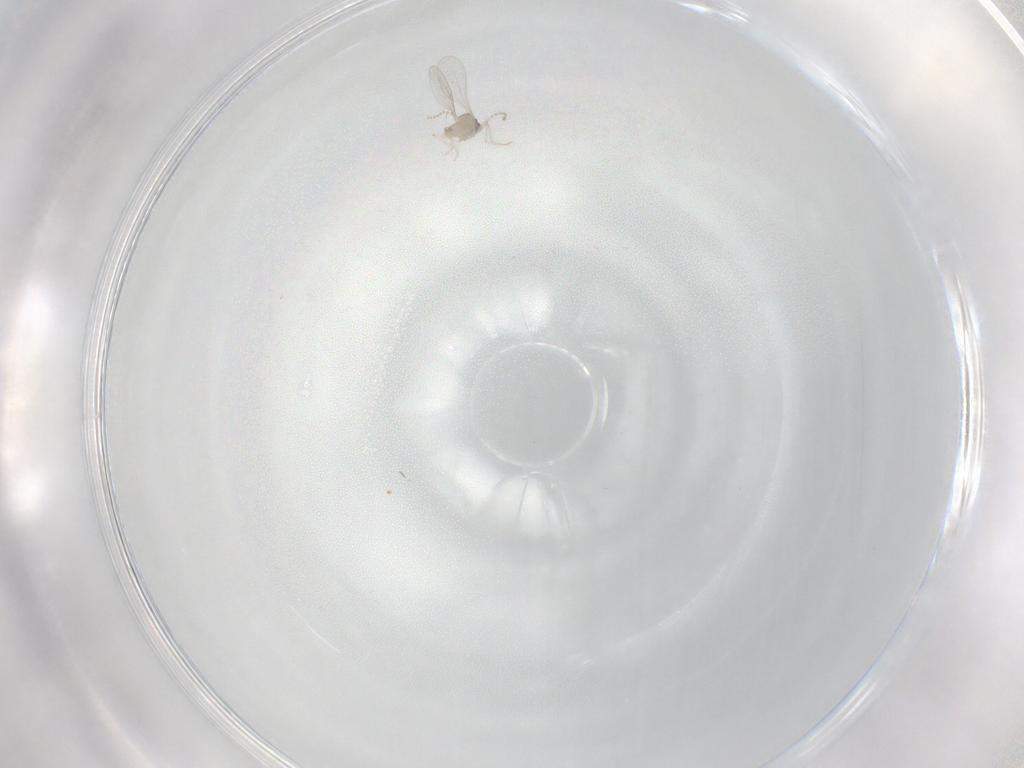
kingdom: Animalia
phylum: Arthropoda
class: Insecta
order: Diptera
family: Cecidomyiidae
